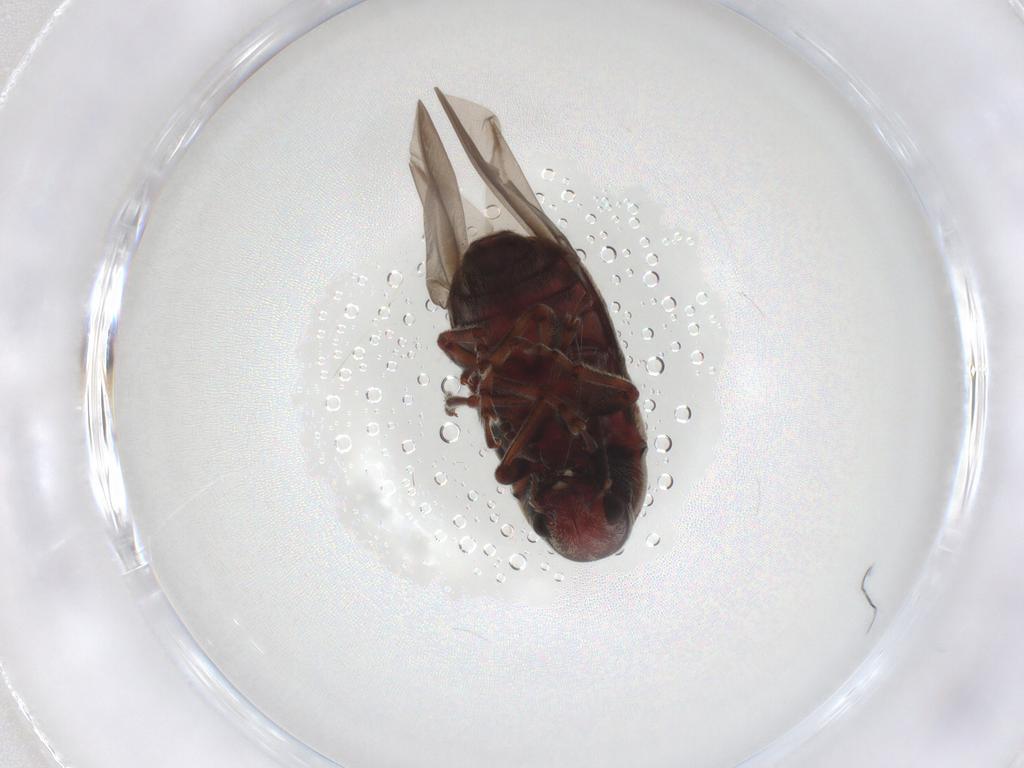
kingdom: Animalia
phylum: Arthropoda
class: Insecta
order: Coleoptera
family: Anthribidae
